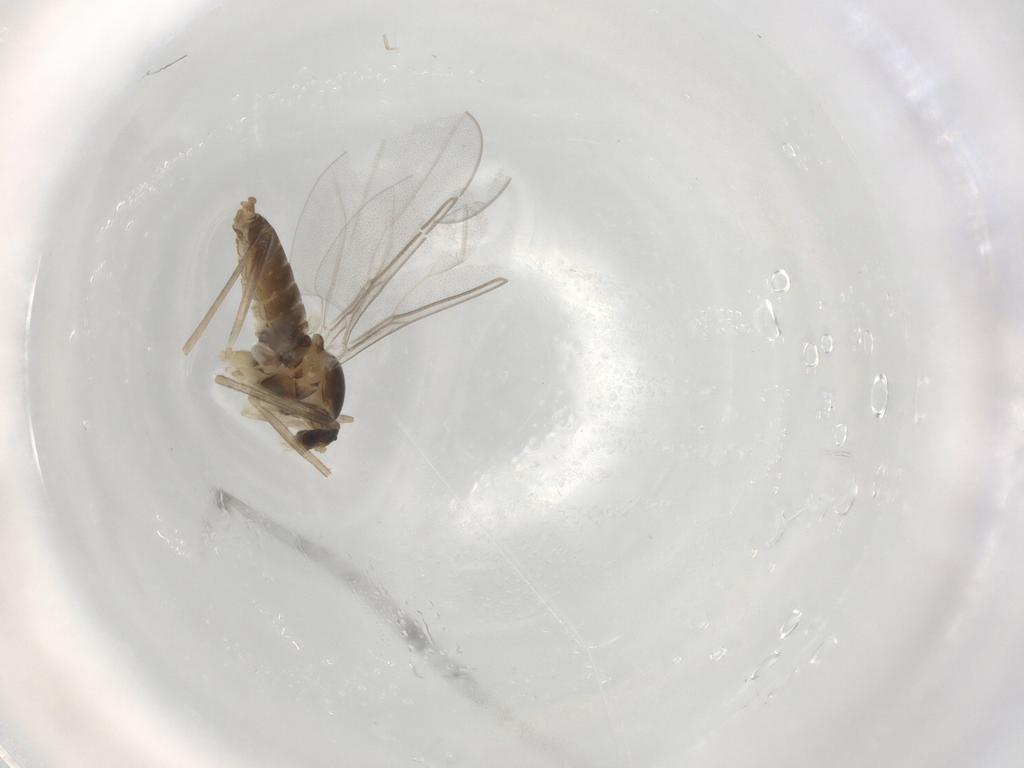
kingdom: Animalia
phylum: Arthropoda
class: Insecta
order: Diptera
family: Cecidomyiidae
